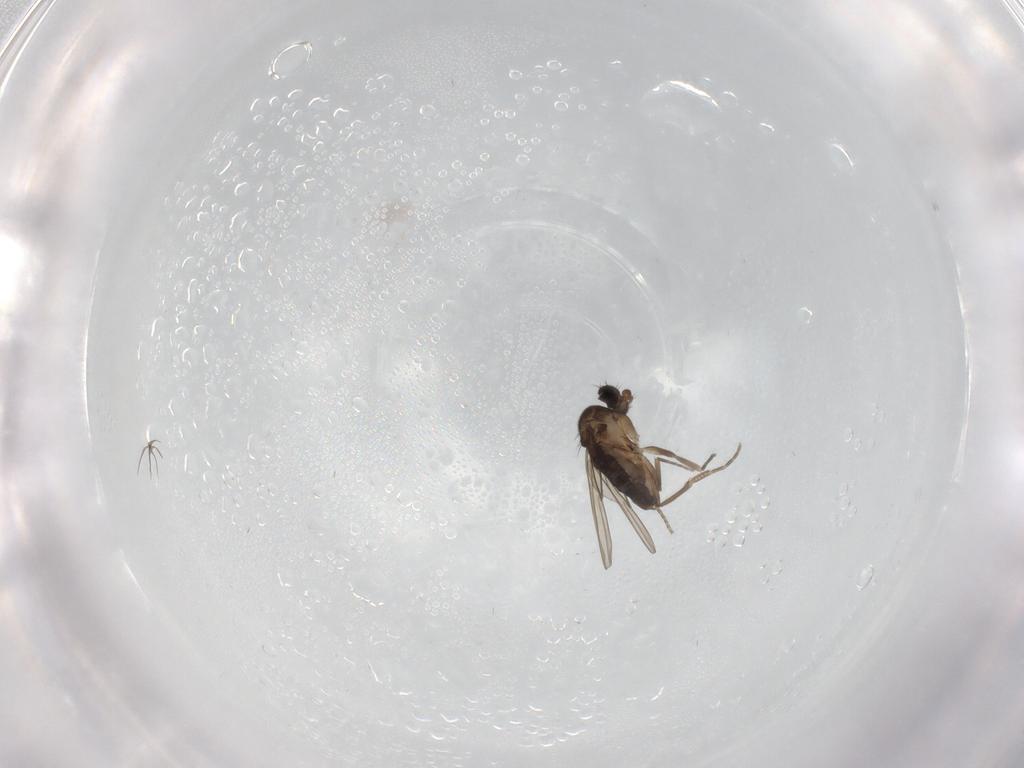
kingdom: Animalia
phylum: Arthropoda
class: Insecta
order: Diptera
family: Phoridae
